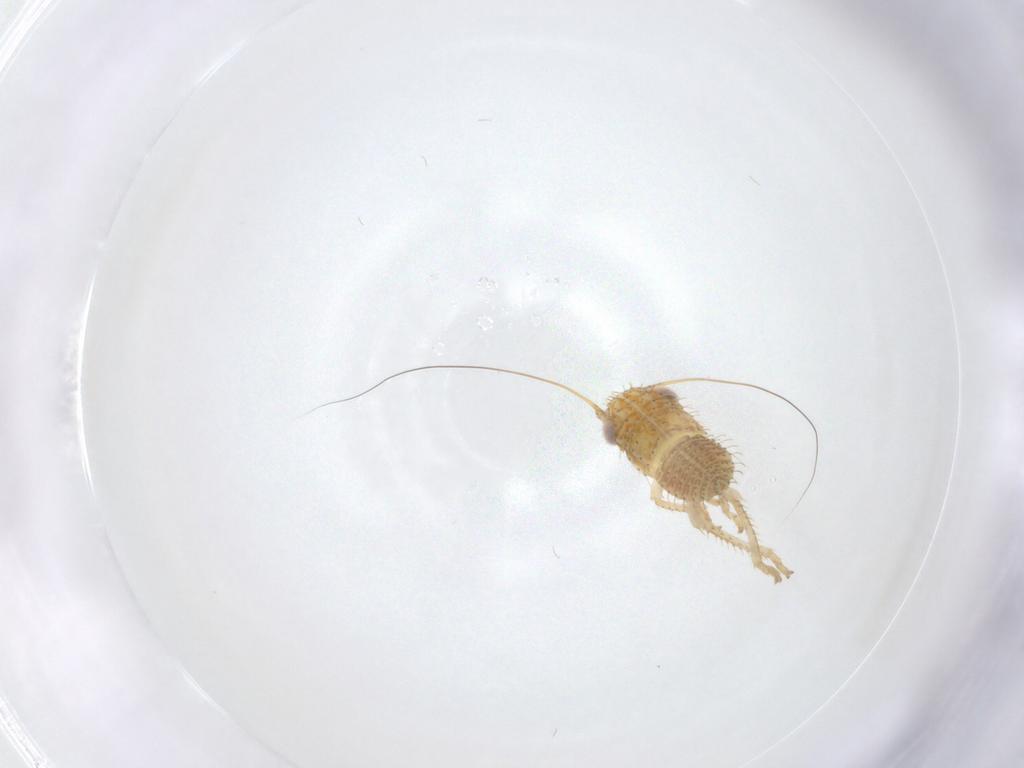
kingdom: Animalia
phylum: Arthropoda
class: Insecta
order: Hemiptera
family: Cicadellidae
